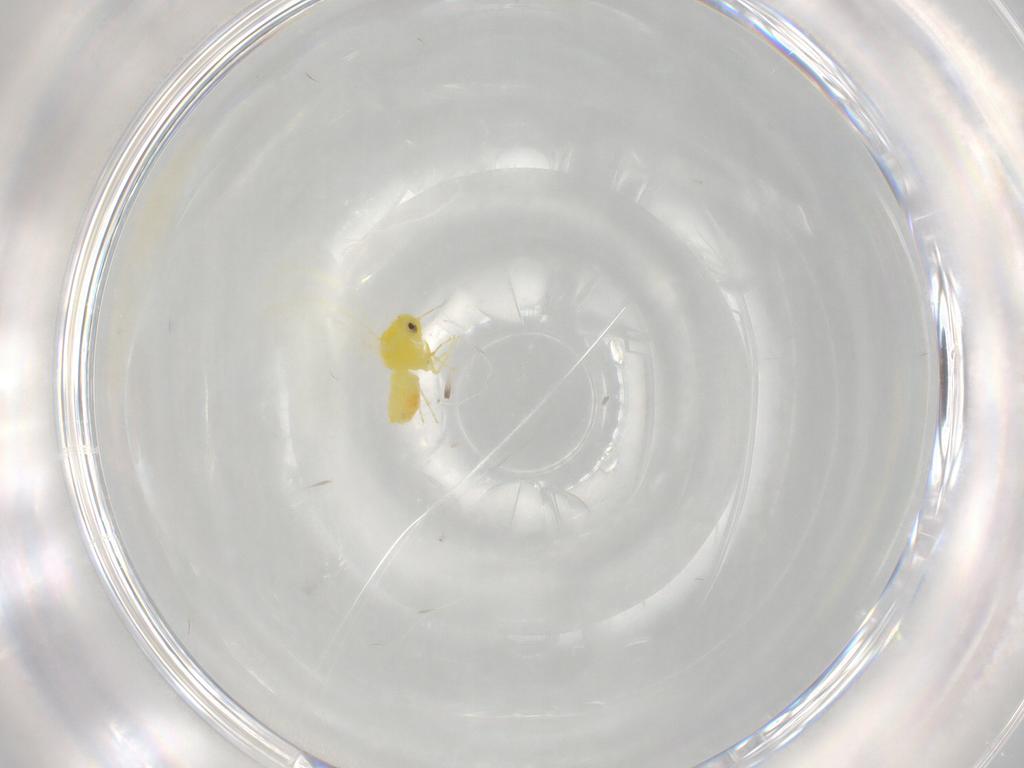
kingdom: Animalia
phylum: Arthropoda
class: Insecta
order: Hemiptera
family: Aleyrodidae
